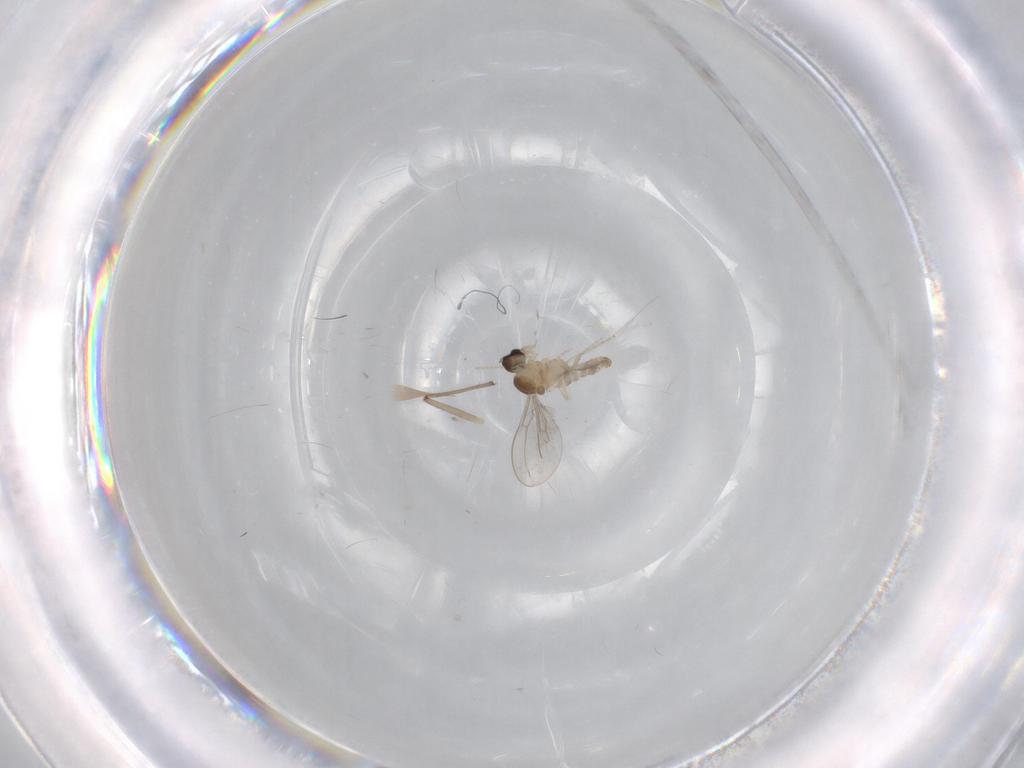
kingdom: Animalia
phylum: Arthropoda
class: Insecta
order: Diptera
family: Cecidomyiidae
